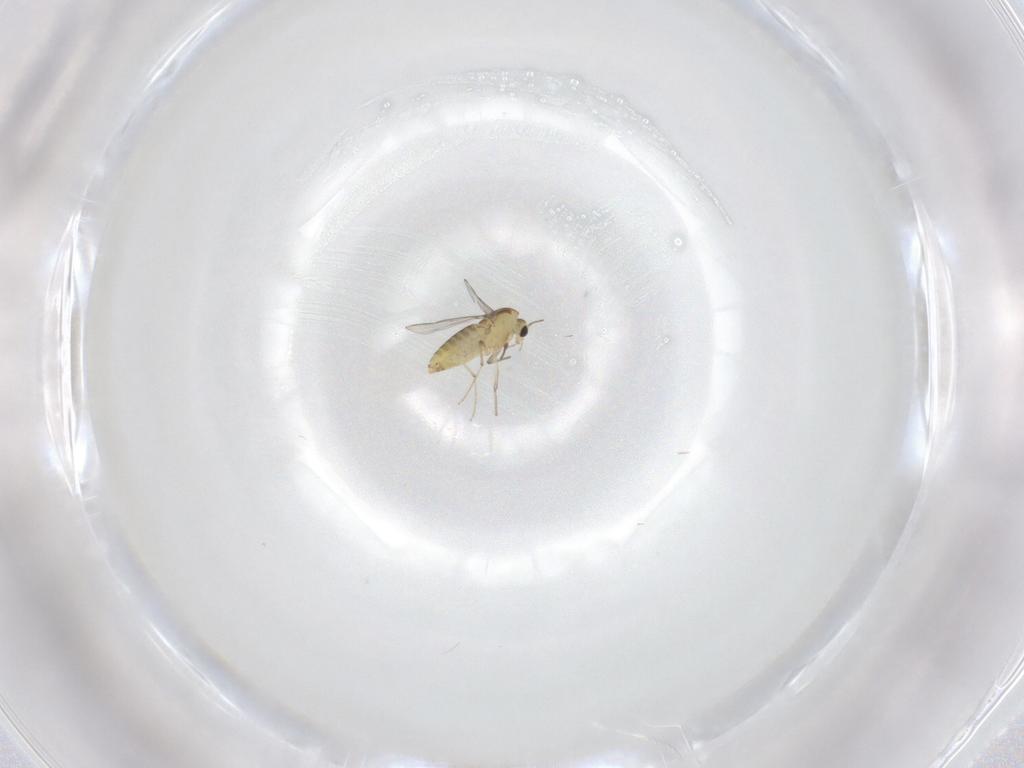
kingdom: Animalia
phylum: Arthropoda
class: Insecta
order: Diptera
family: Chironomidae
